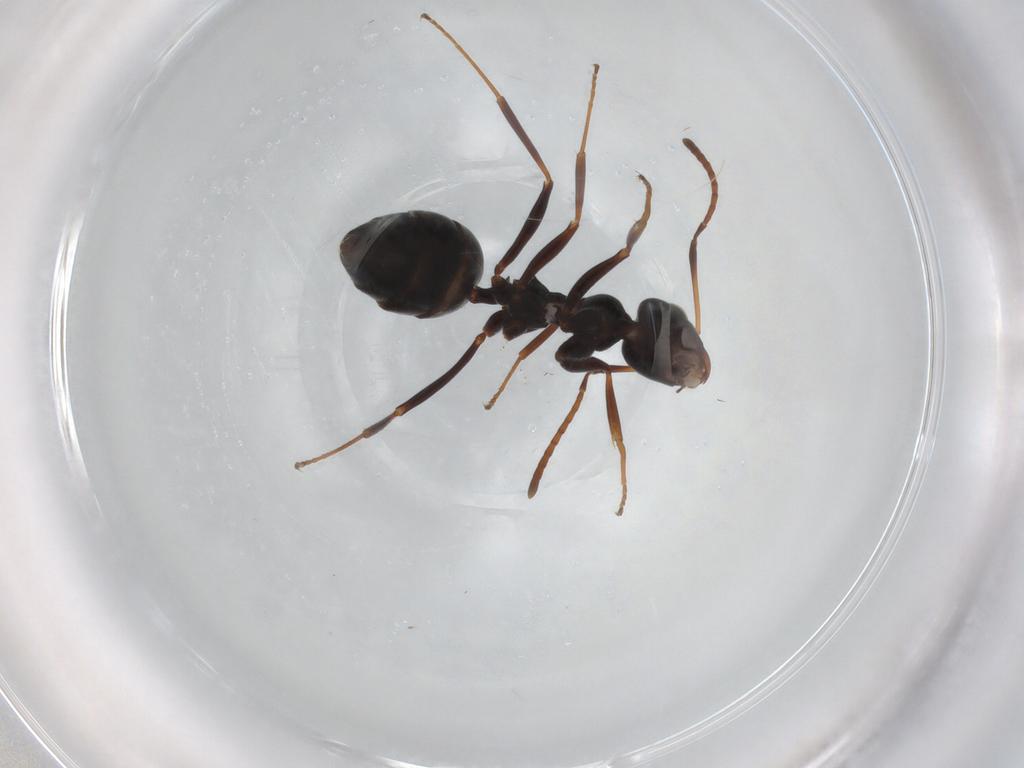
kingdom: Animalia
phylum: Arthropoda
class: Insecta
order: Hymenoptera
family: Formicidae
